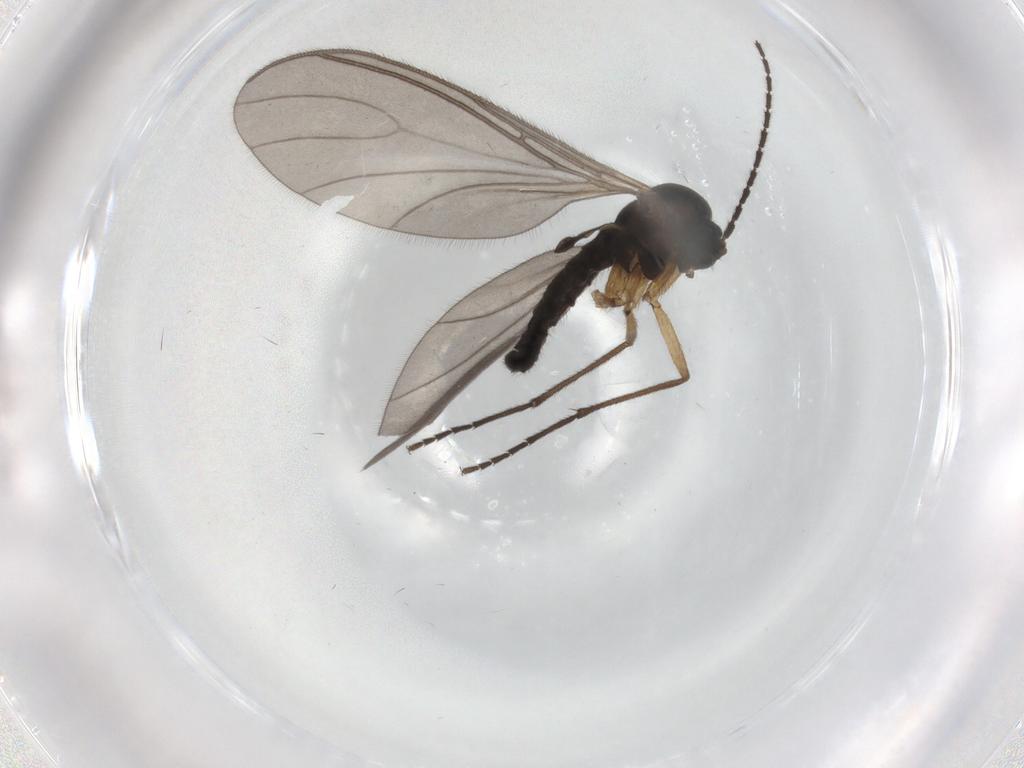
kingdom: Animalia
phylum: Arthropoda
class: Insecta
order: Diptera
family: Sciaridae
